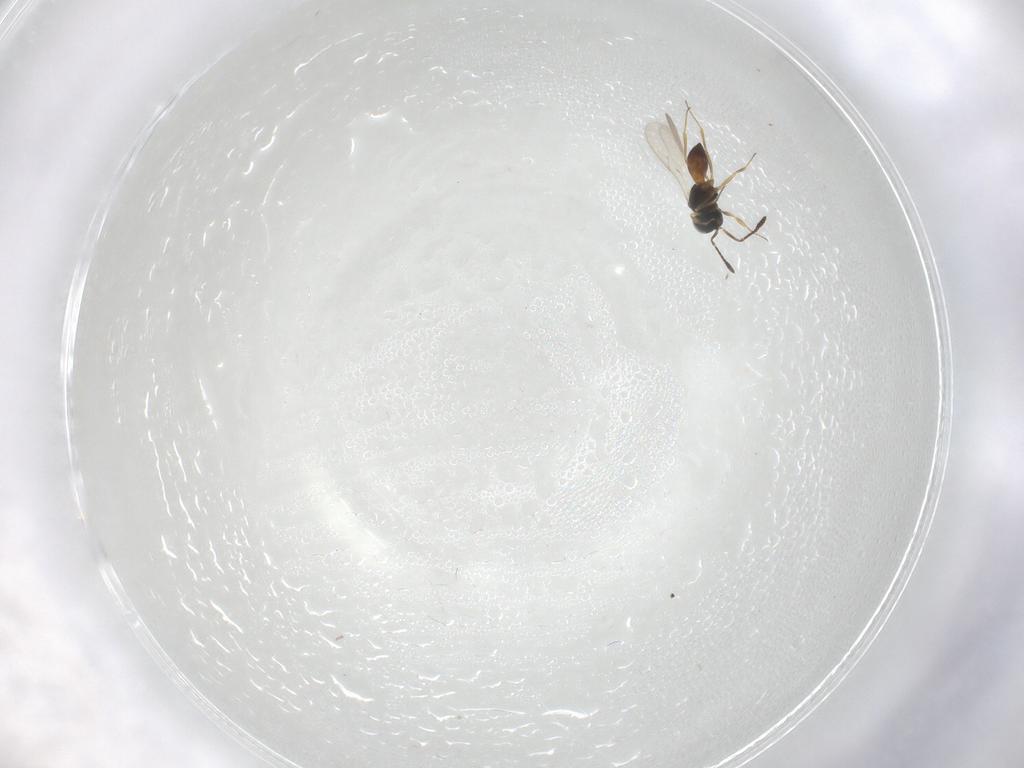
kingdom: Animalia
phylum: Arthropoda
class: Insecta
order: Hymenoptera
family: Scelionidae
